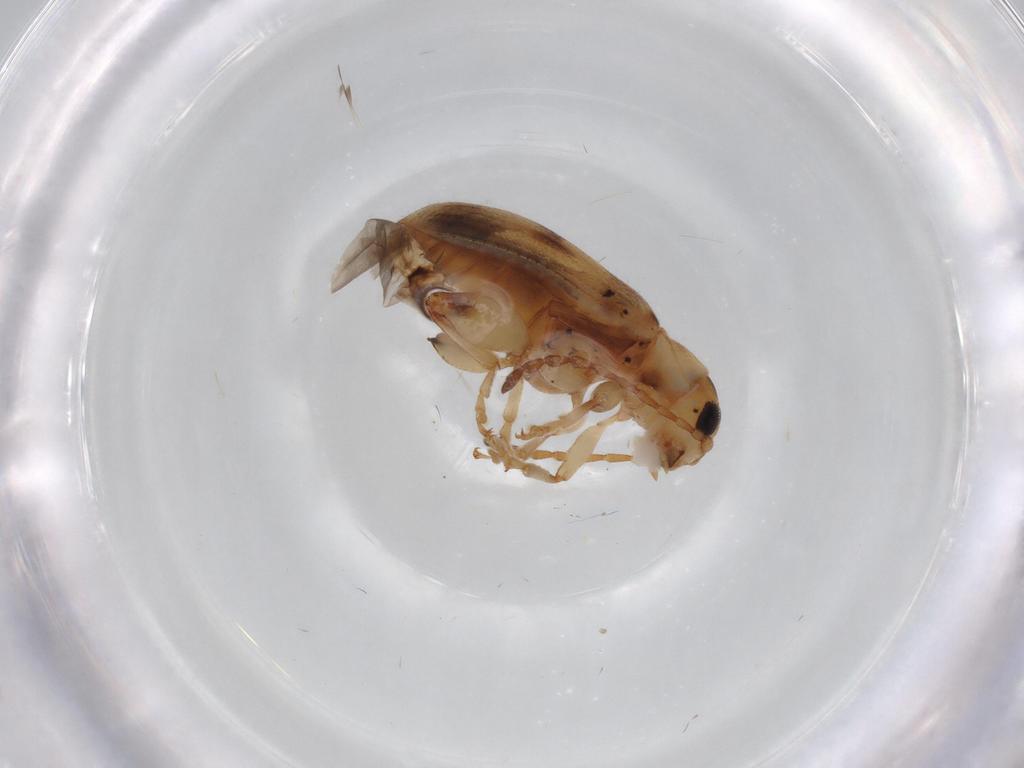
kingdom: Animalia
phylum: Arthropoda
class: Insecta
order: Coleoptera
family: Chrysomelidae
